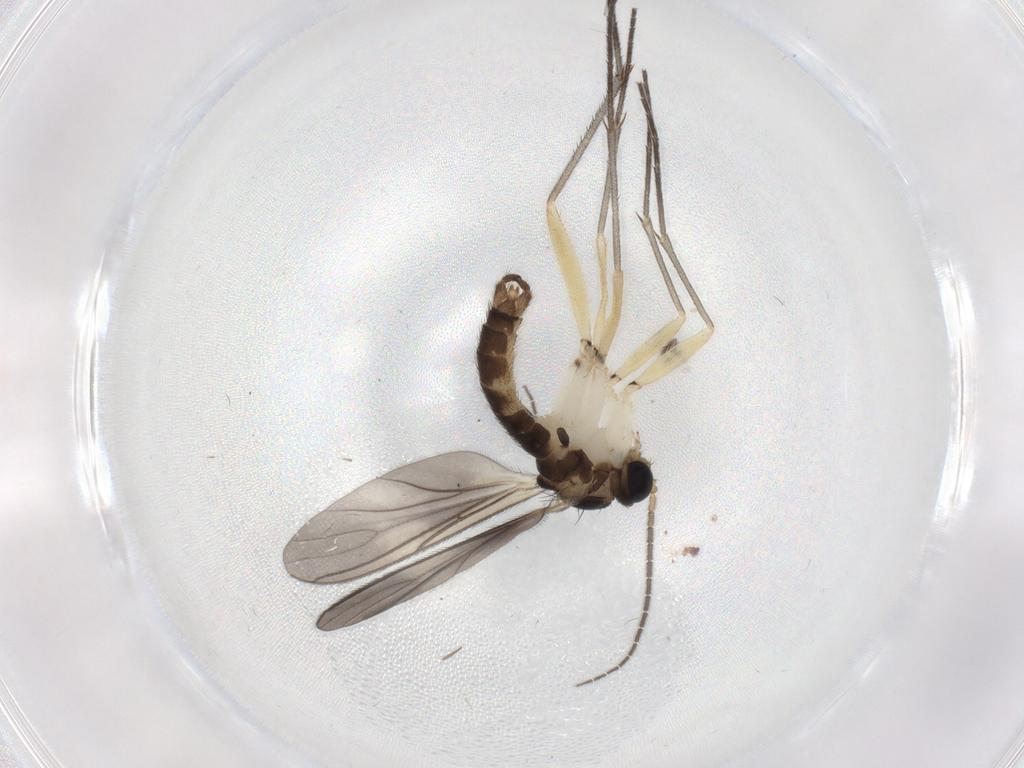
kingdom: Animalia
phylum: Arthropoda
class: Insecta
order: Diptera
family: Sciaridae
